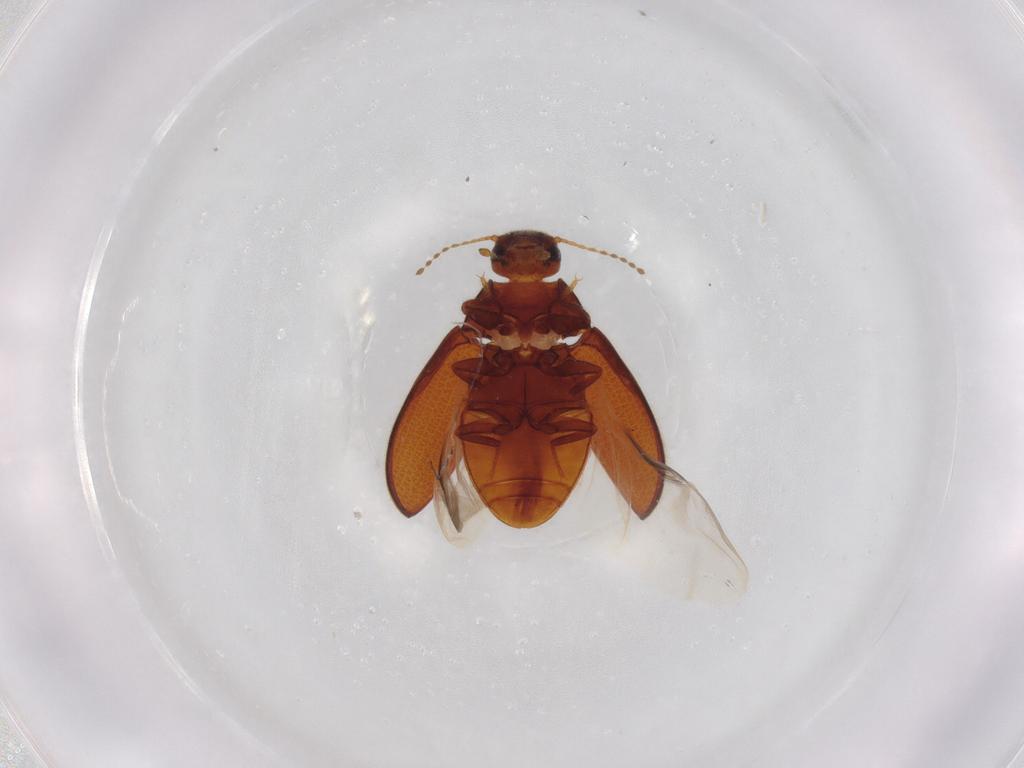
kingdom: Animalia
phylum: Arthropoda
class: Insecta
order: Coleoptera
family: Limnichidae
